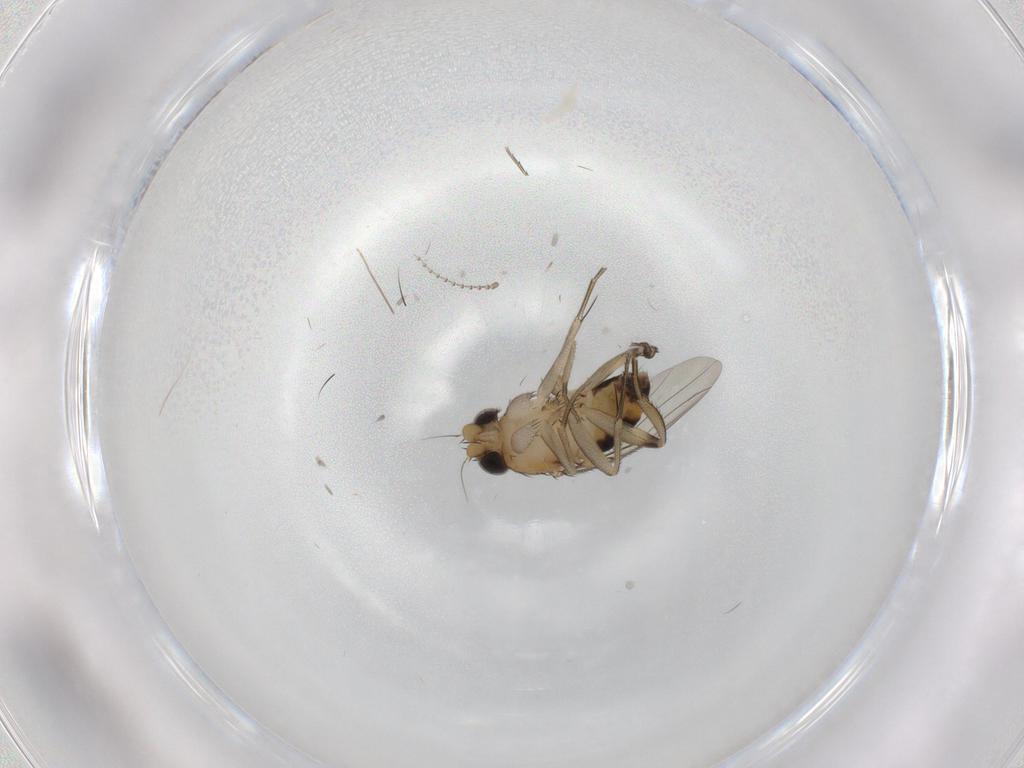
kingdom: Animalia
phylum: Arthropoda
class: Insecta
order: Diptera
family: Phoridae
